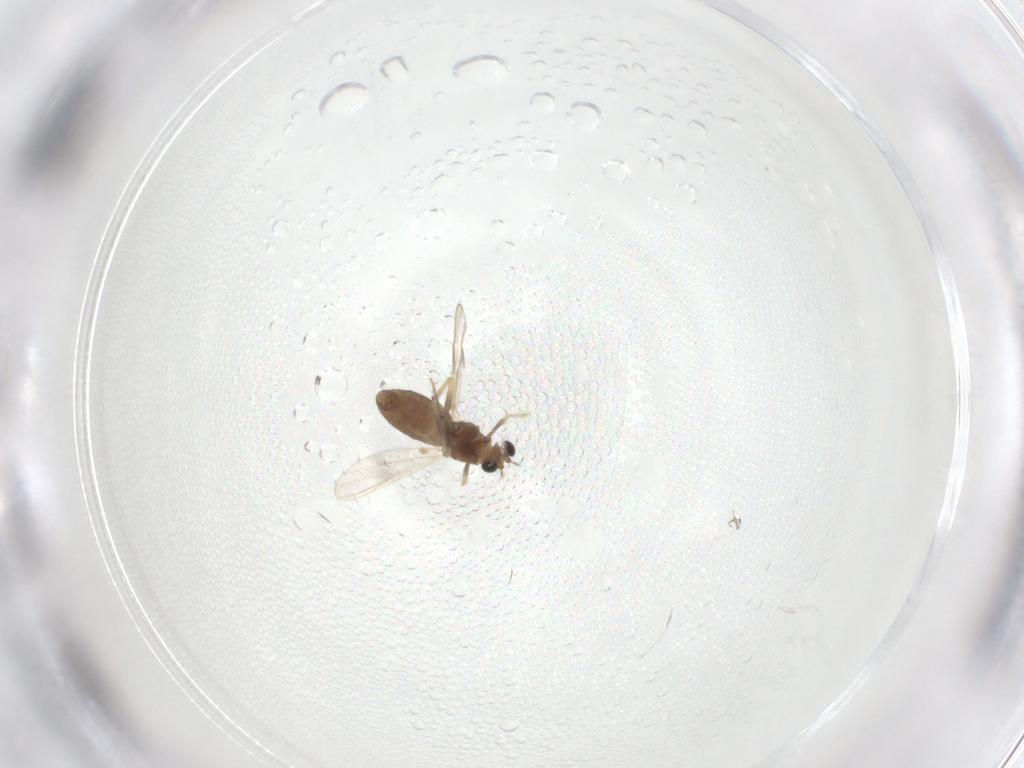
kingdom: Animalia
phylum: Arthropoda
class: Insecta
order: Diptera
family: Chironomidae
